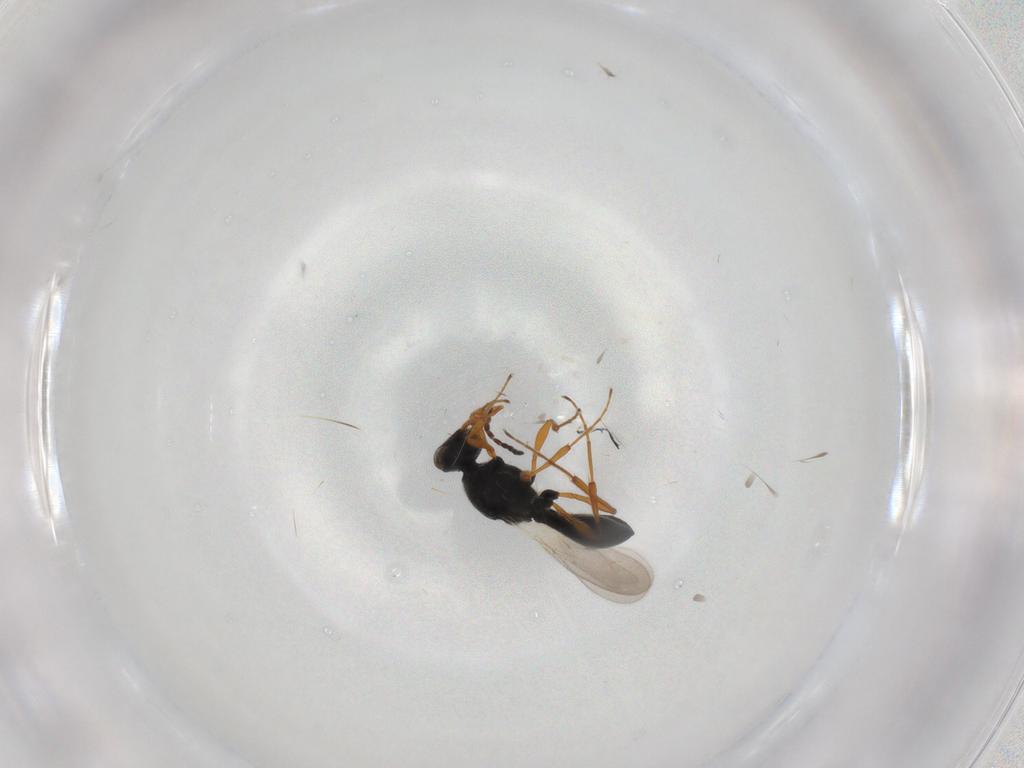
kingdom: Animalia
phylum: Arthropoda
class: Insecta
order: Hymenoptera
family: Platygastridae
